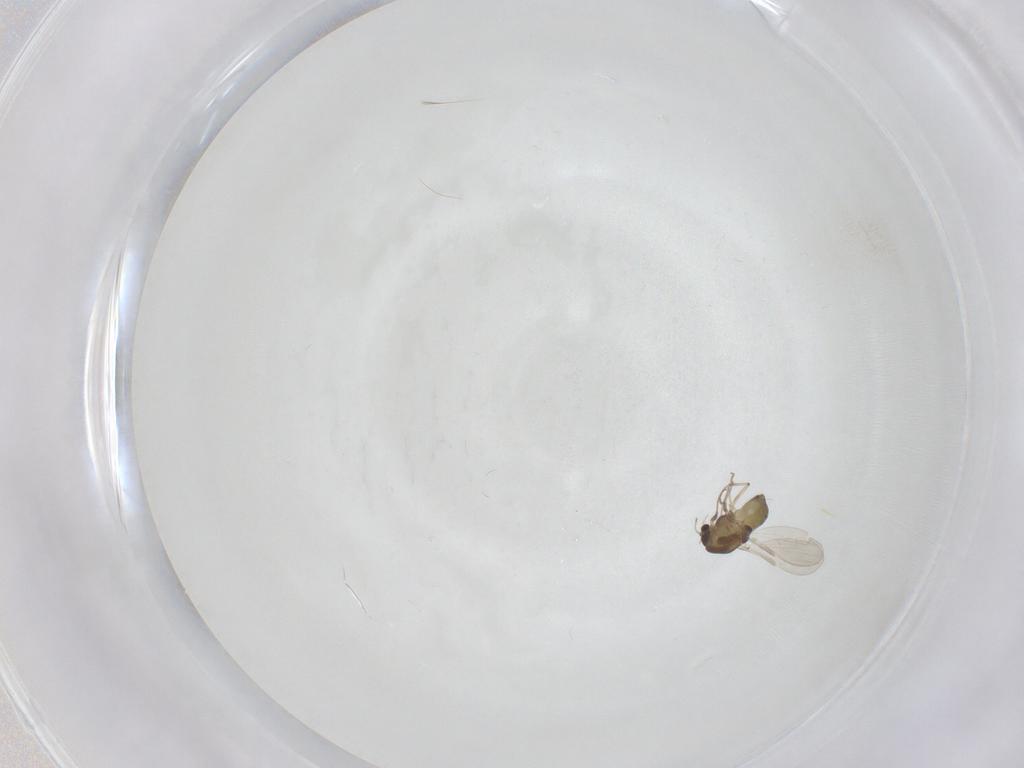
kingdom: Animalia
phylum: Arthropoda
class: Insecta
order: Diptera
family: Chironomidae
